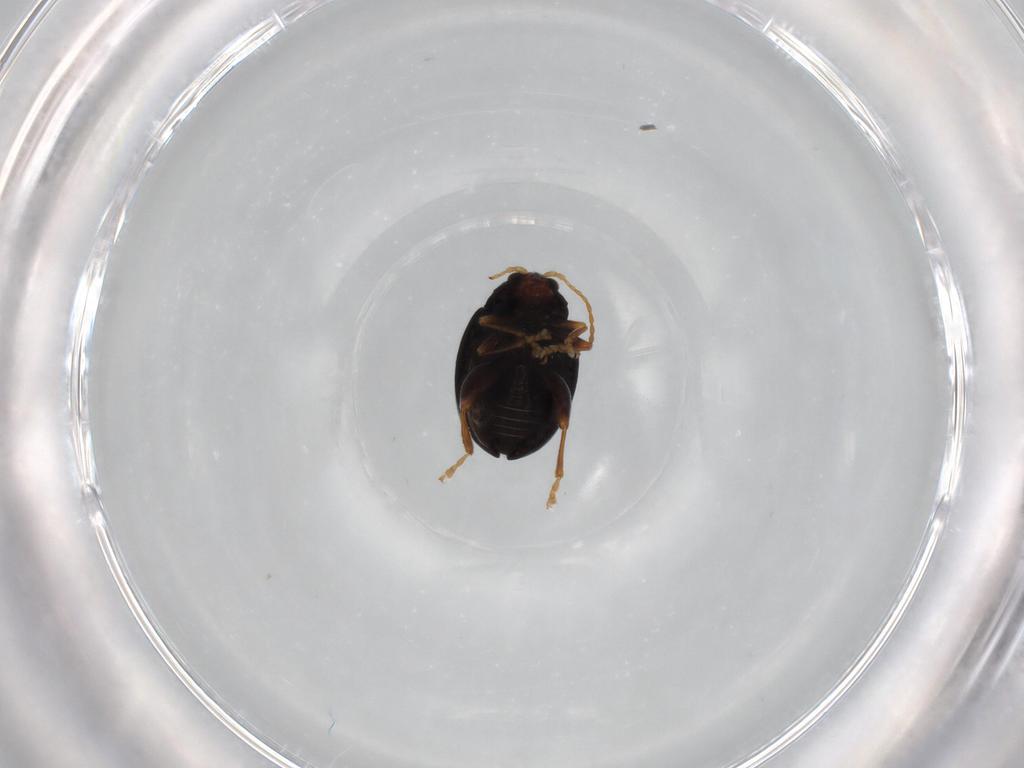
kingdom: Animalia
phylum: Arthropoda
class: Insecta
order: Coleoptera
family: Chrysomelidae
